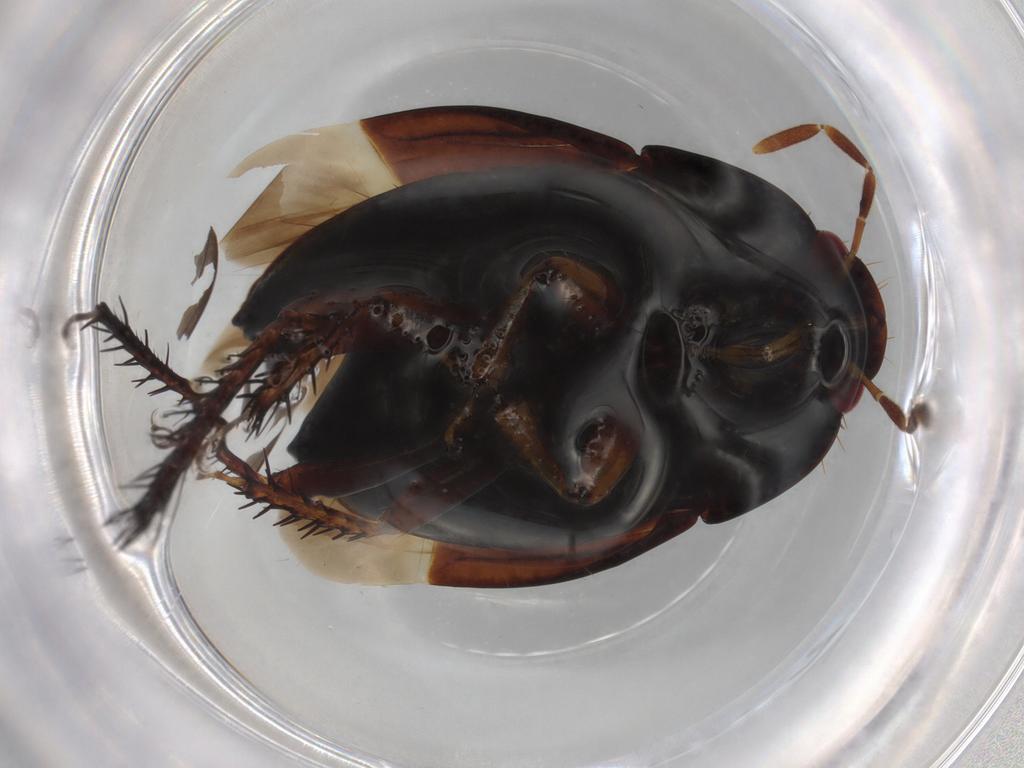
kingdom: Animalia
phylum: Arthropoda
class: Insecta
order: Hemiptera
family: Cydnidae
